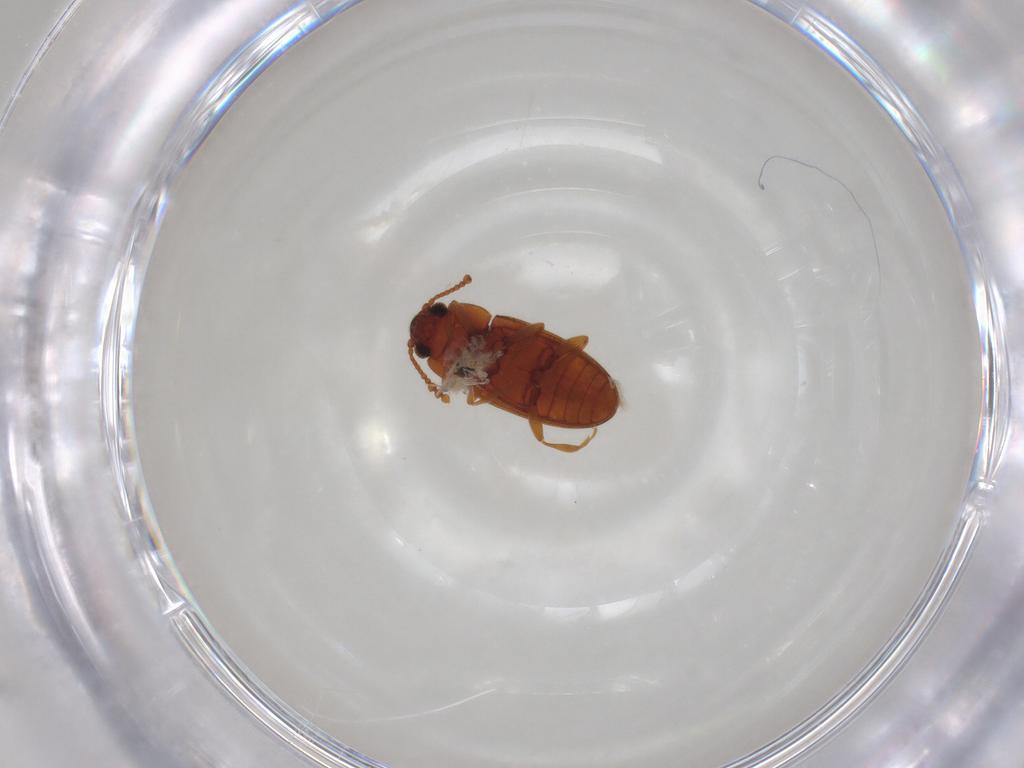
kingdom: Animalia
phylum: Arthropoda
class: Insecta
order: Coleoptera
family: Erotylidae
